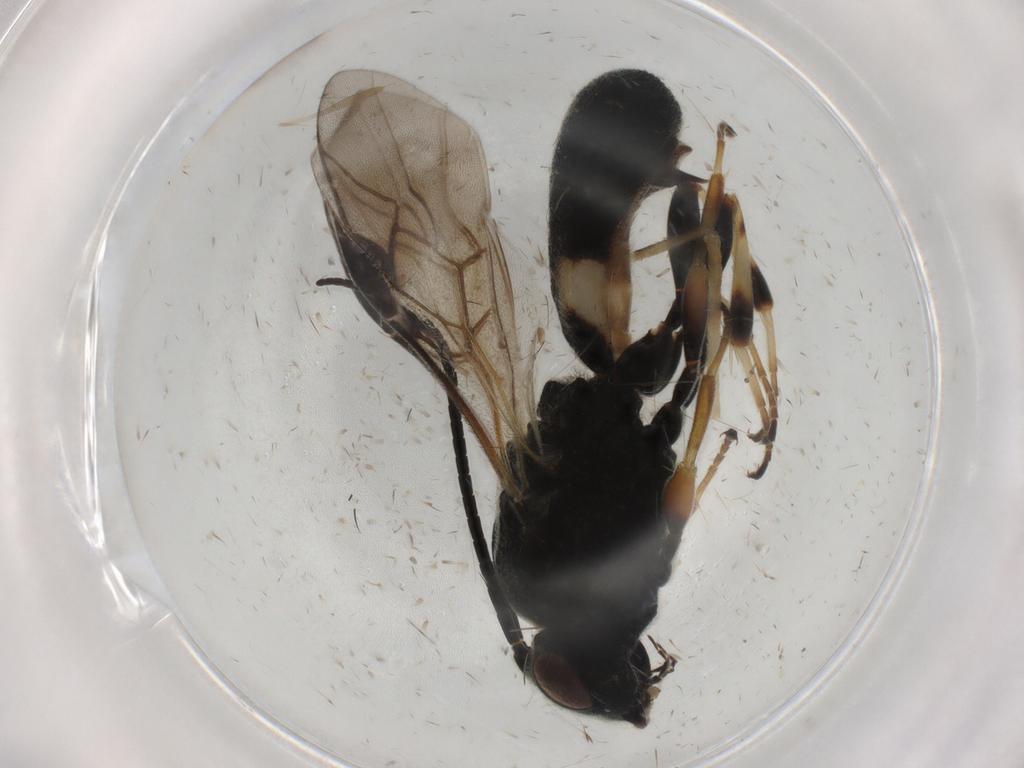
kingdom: Animalia
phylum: Arthropoda
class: Insecta
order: Hymenoptera
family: Braconidae
